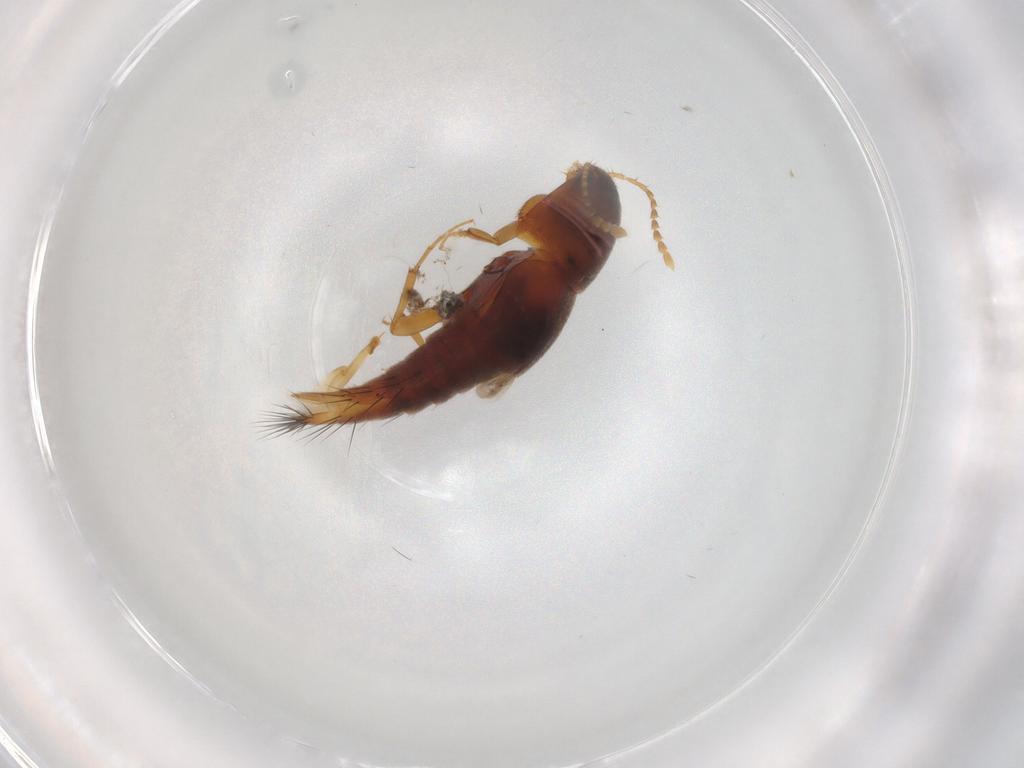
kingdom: Animalia
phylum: Arthropoda
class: Insecta
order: Coleoptera
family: Staphylinidae
